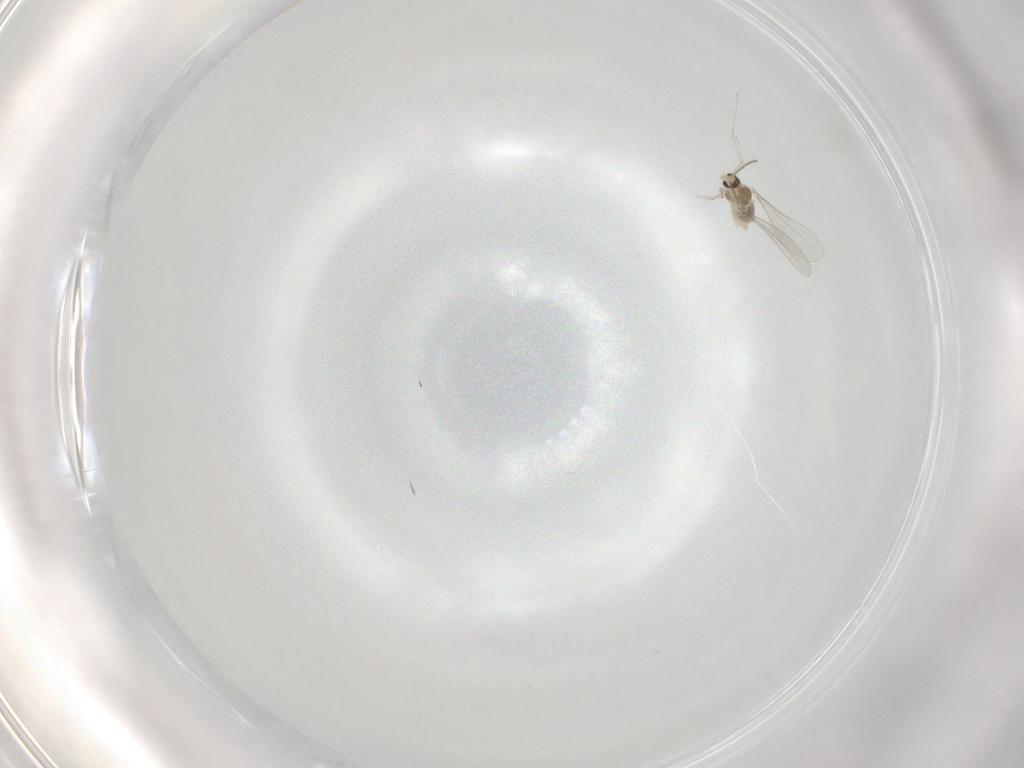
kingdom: Animalia
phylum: Arthropoda
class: Insecta
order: Diptera
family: Cecidomyiidae
